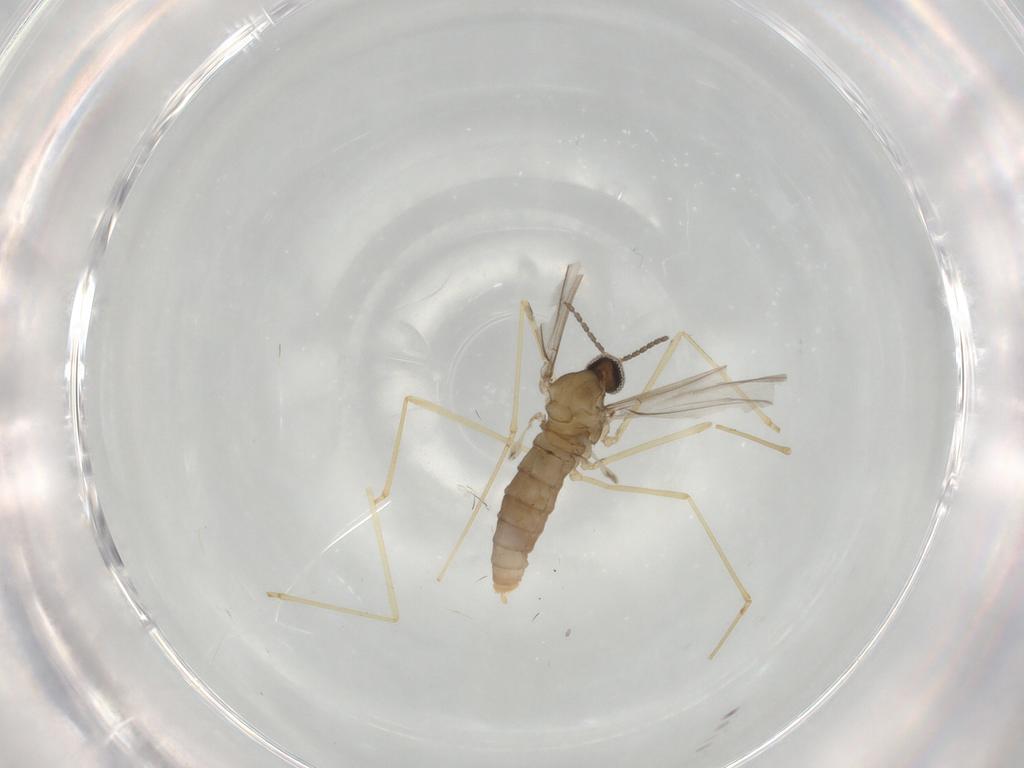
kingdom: Animalia
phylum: Arthropoda
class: Insecta
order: Diptera
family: Cecidomyiidae
